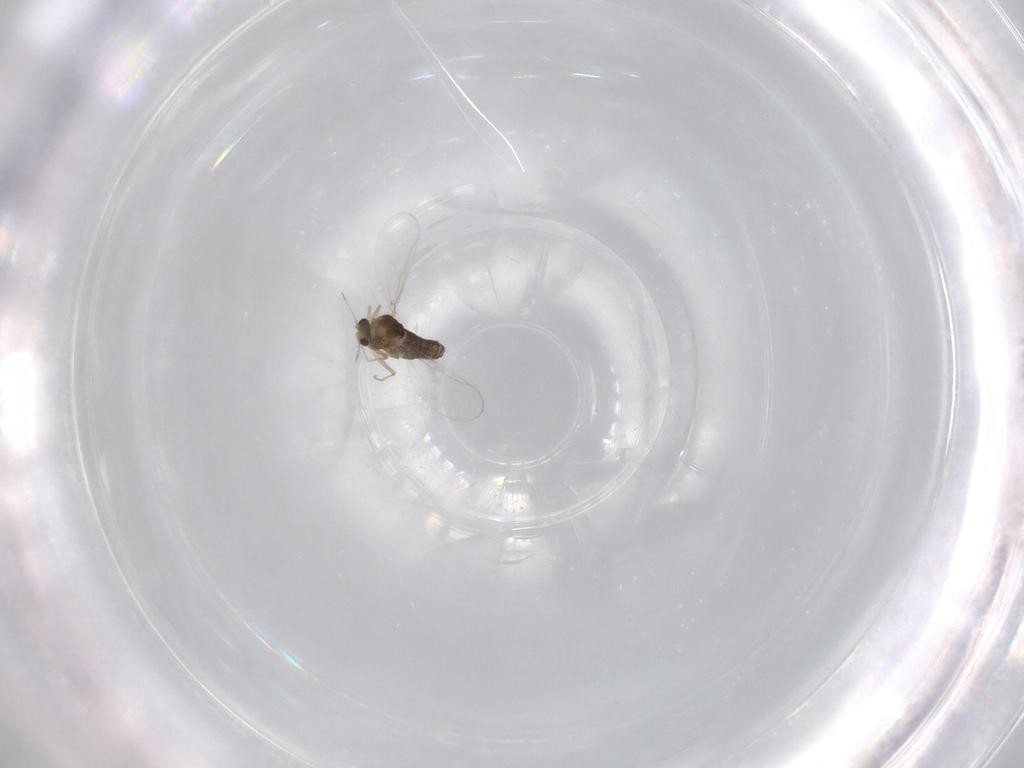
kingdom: Animalia
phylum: Arthropoda
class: Insecta
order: Diptera
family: Chironomidae
